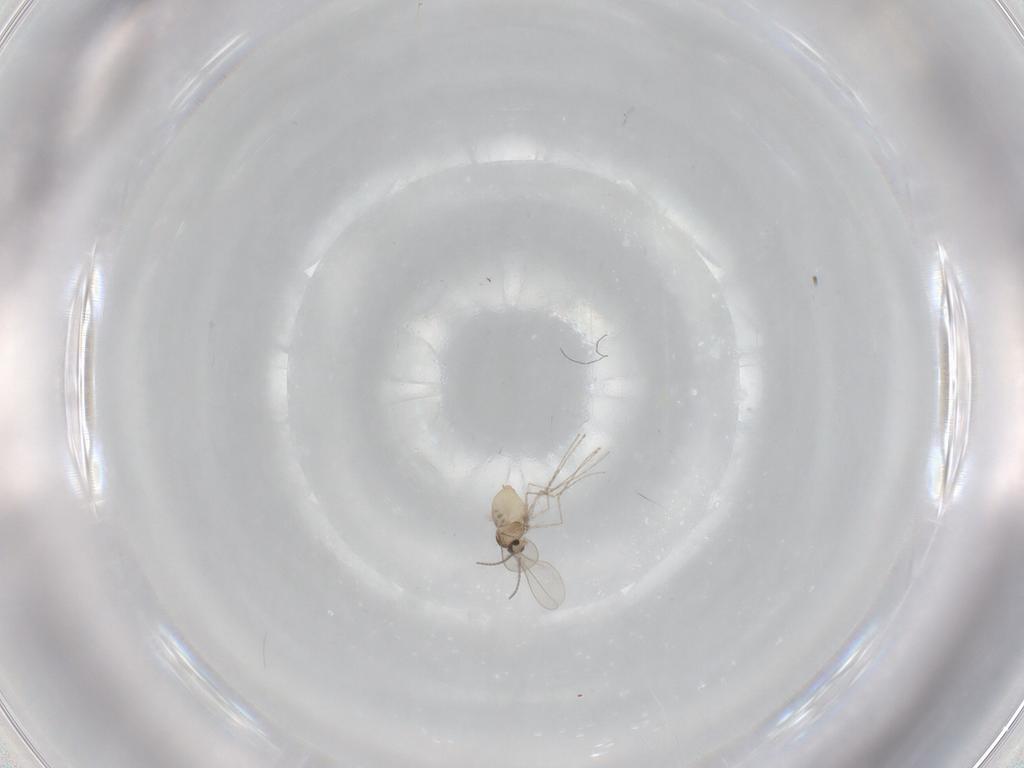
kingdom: Animalia
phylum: Arthropoda
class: Insecta
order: Diptera
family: Cecidomyiidae
